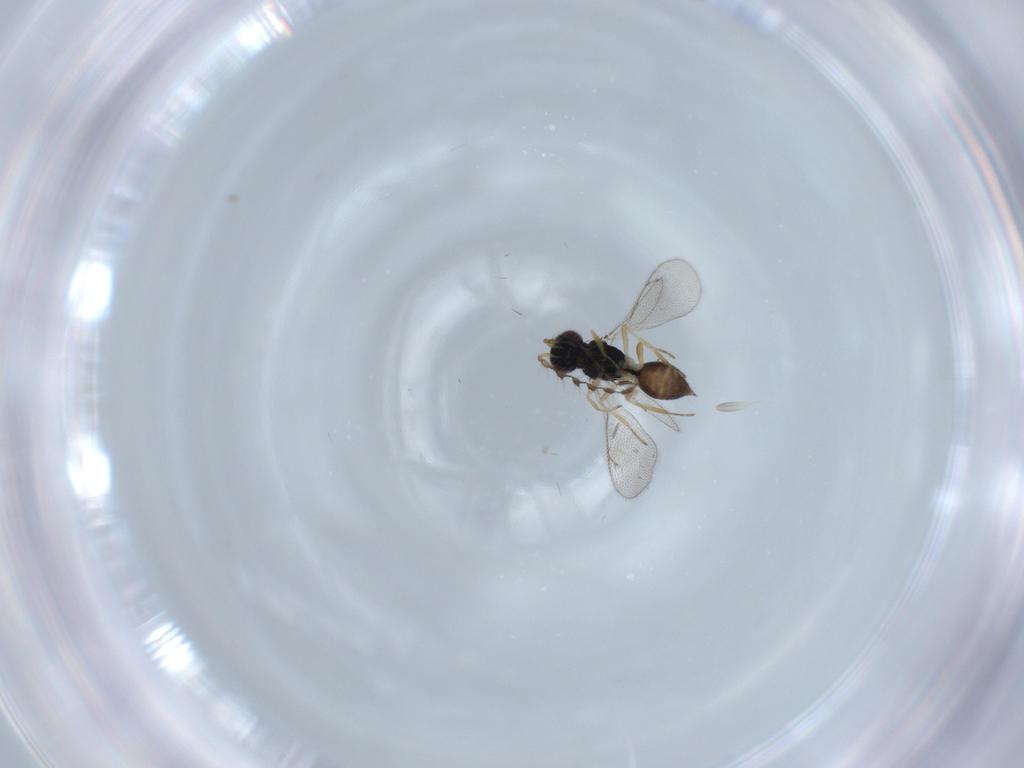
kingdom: Animalia
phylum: Arthropoda
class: Insecta
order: Hymenoptera
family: Eulophidae
